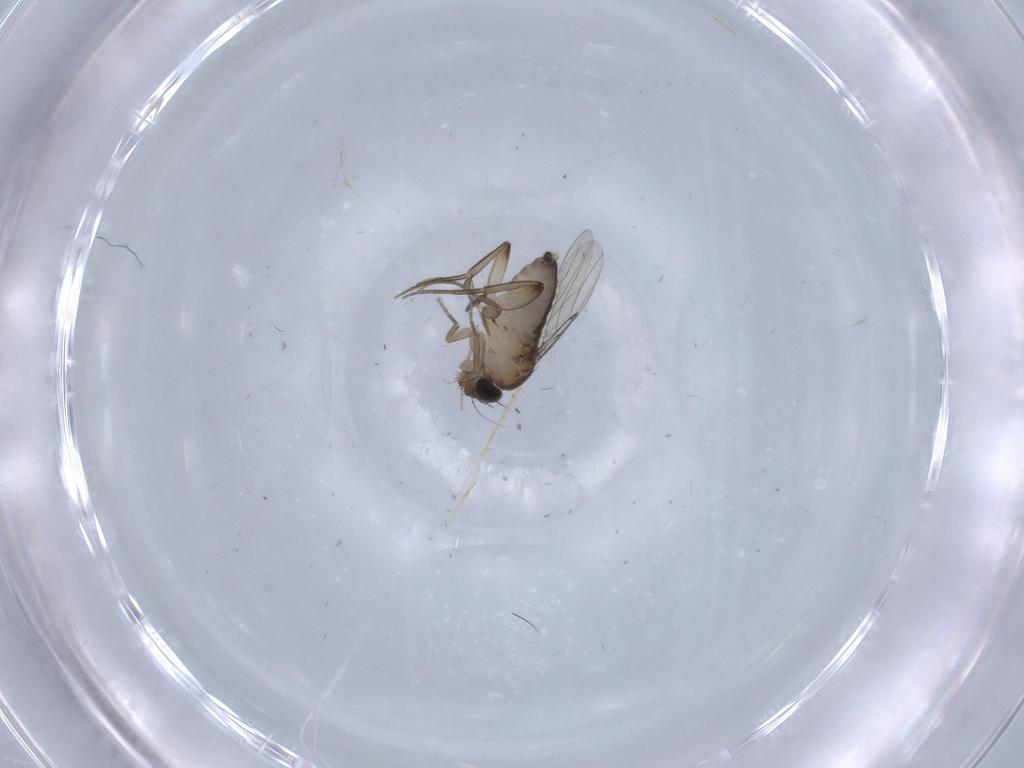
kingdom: Animalia
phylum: Arthropoda
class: Insecta
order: Diptera
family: Phoridae
